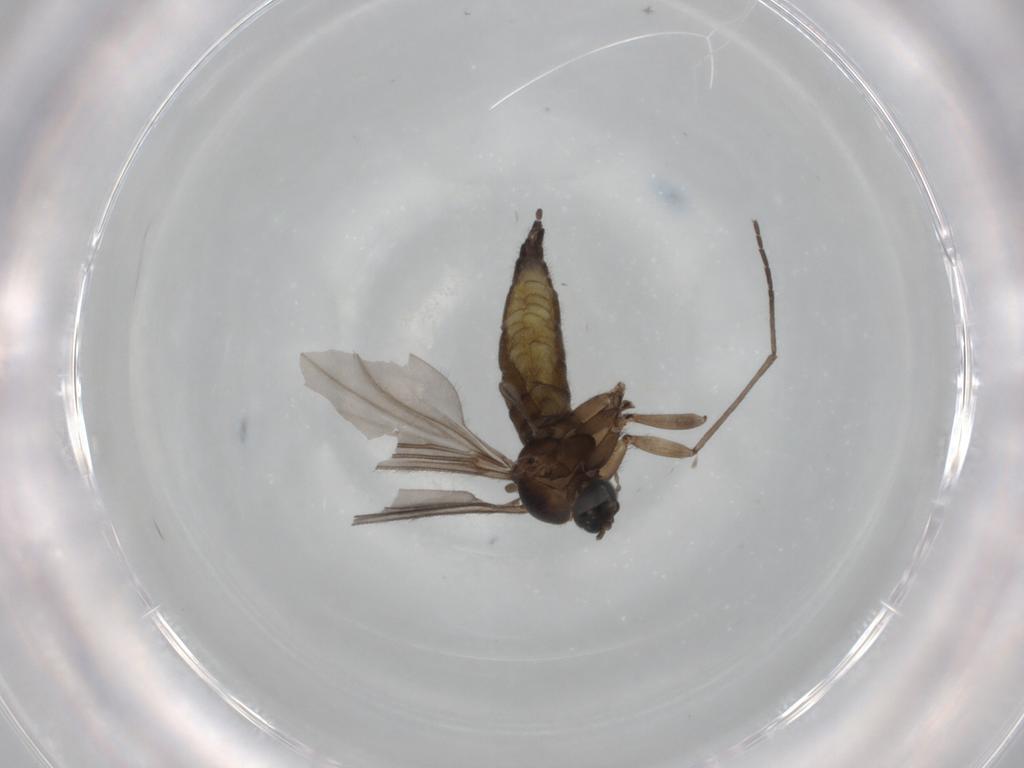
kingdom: Animalia
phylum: Arthropoda
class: Insecta
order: Diptera
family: Sciaridae
